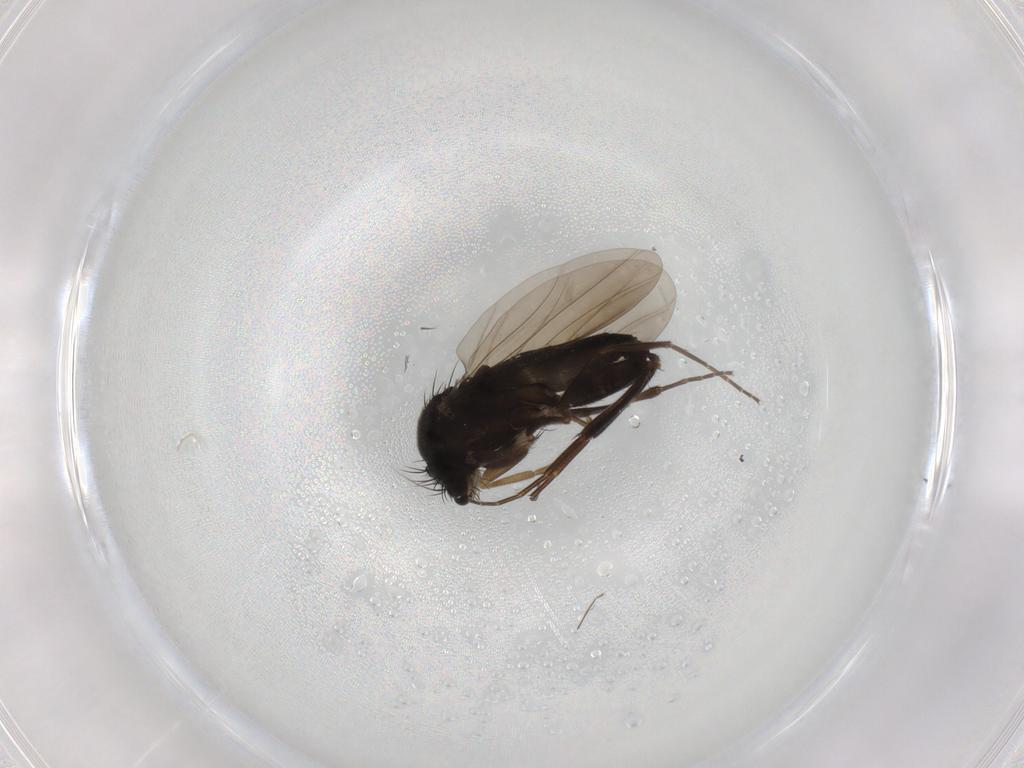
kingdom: Animalia
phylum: Arthropoda
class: Insecta
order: Diptera
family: Phoridae
